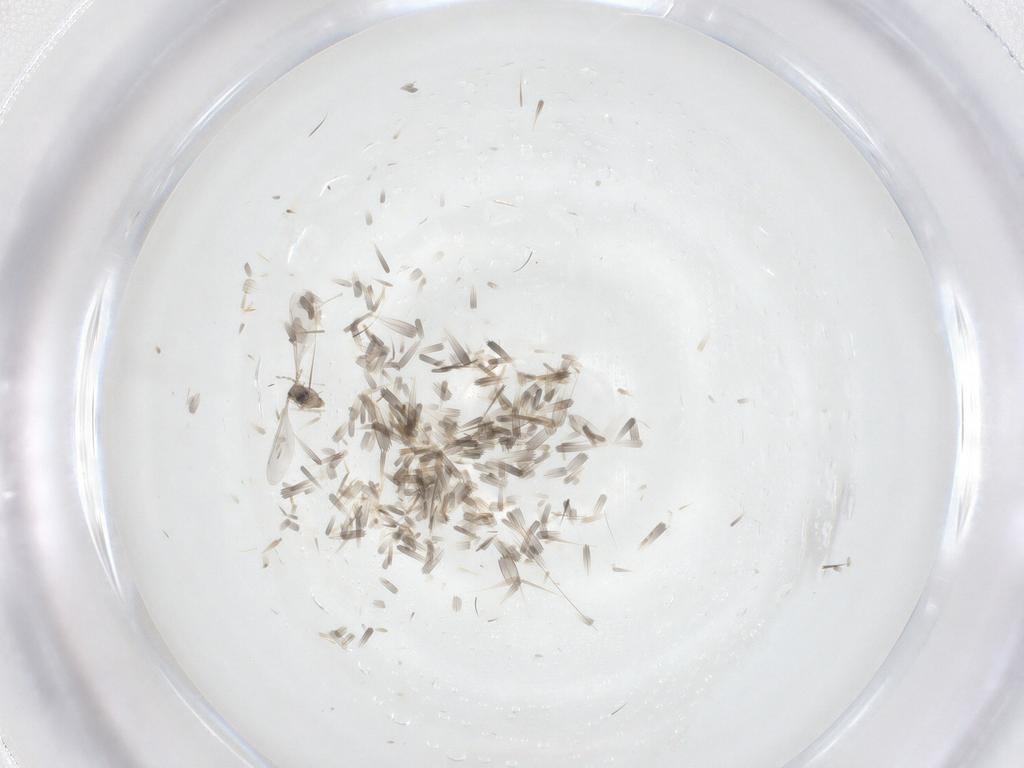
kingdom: Animalia
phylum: Arthropoda
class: Insecta
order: Diptera
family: Cecidomyiidae
